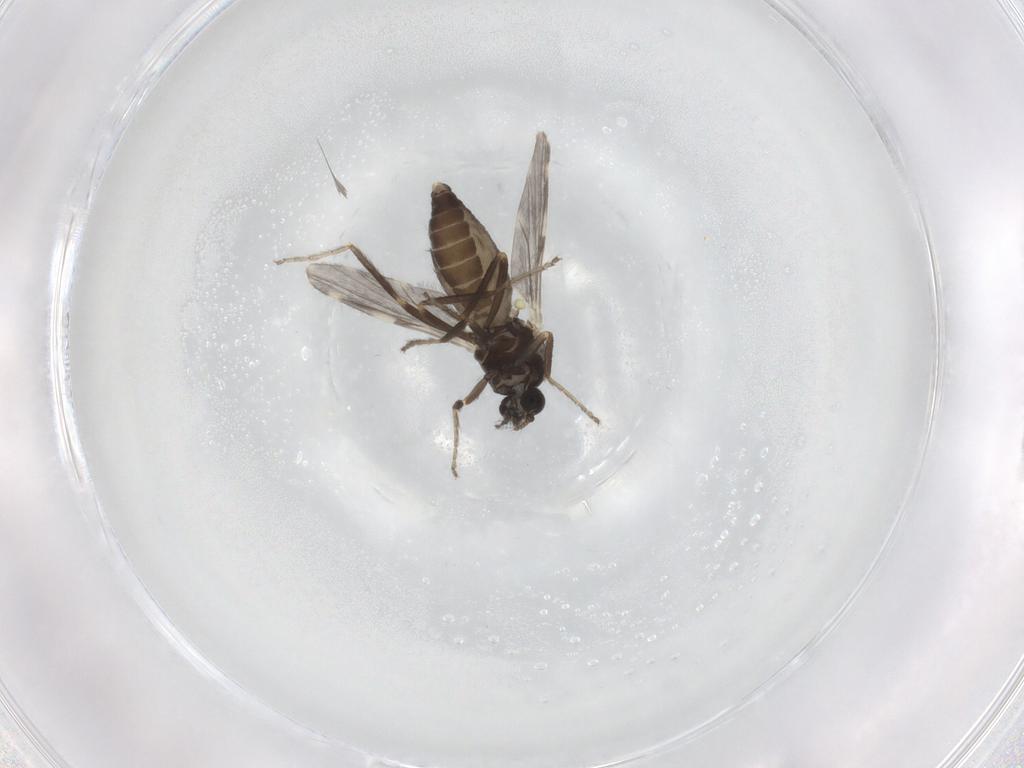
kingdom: Animalia
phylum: Arthropoda
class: Insecta
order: Diptera
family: Ceratopogonidae
